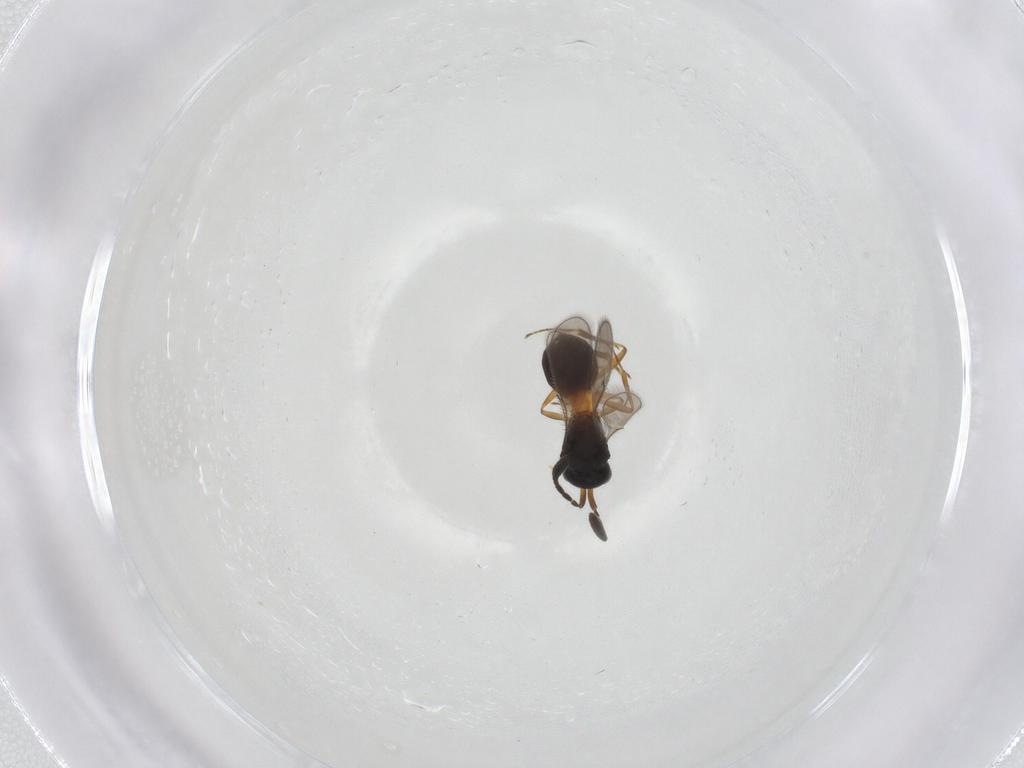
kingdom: Animalia
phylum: Arthropoda
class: Insecta
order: Hymenoptera
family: Scelionidae
